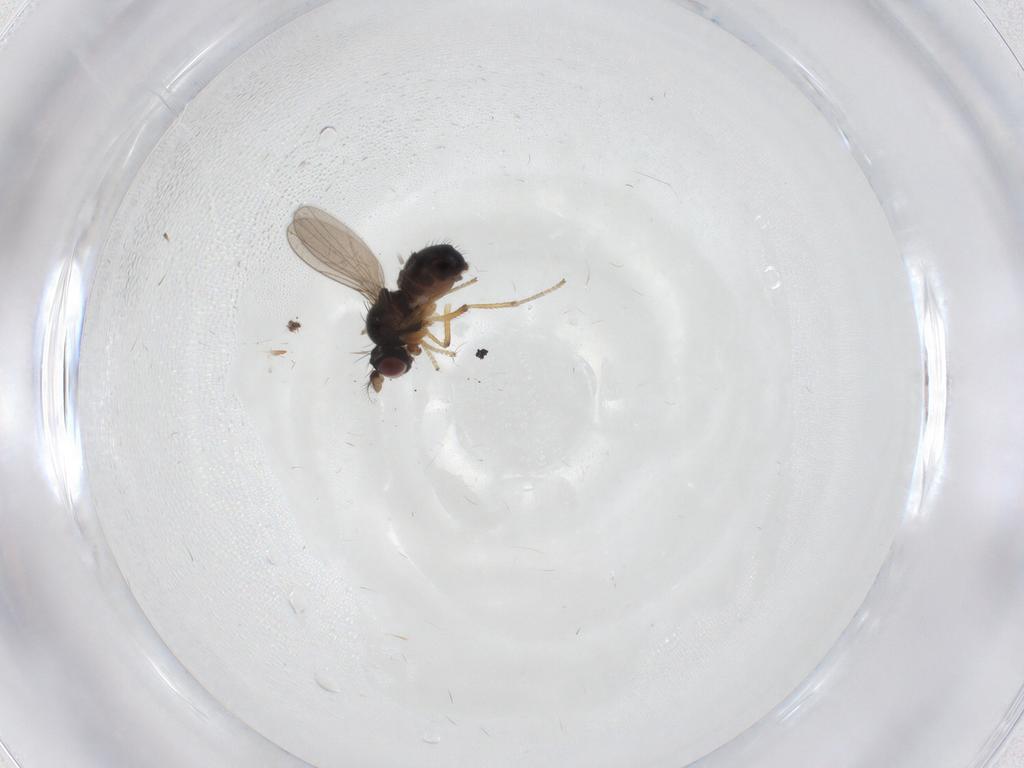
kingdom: Animalia
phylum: Arthropoda
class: Insecta
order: Diptera
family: Ephydridae
